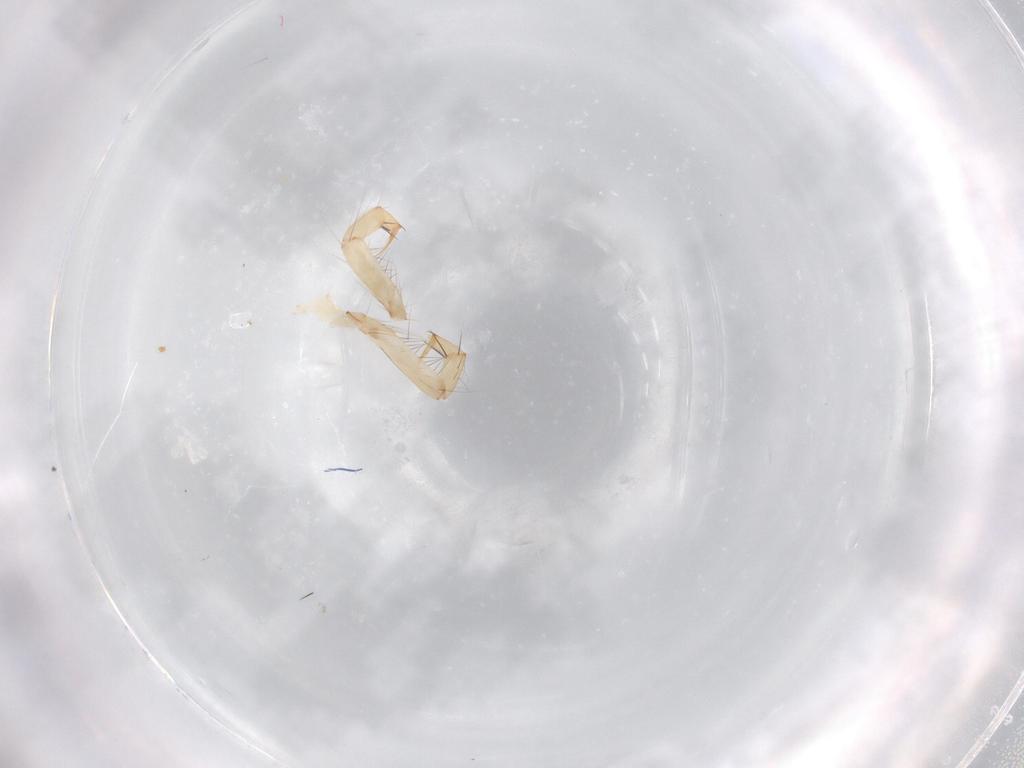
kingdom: Animalia
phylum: Arthropoda
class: Insecta
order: Trichoptera
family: Polycentropodidae
